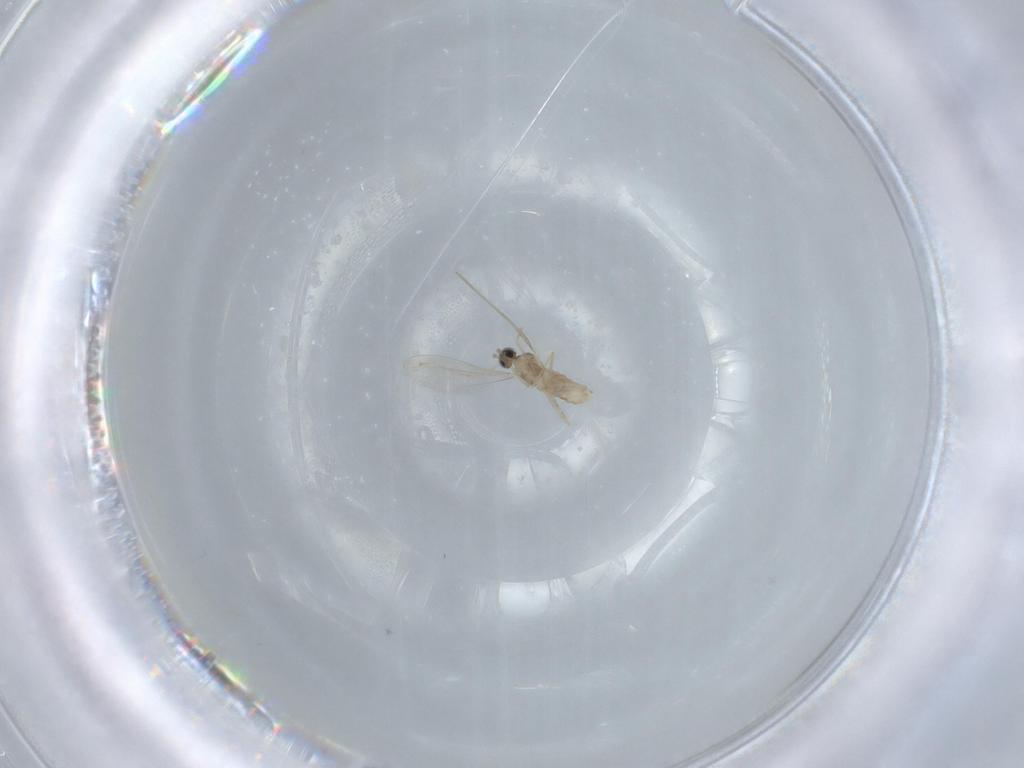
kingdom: Animalia
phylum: Arthropoda
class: Insecta
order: Diptera
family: Cecidomyiidae
